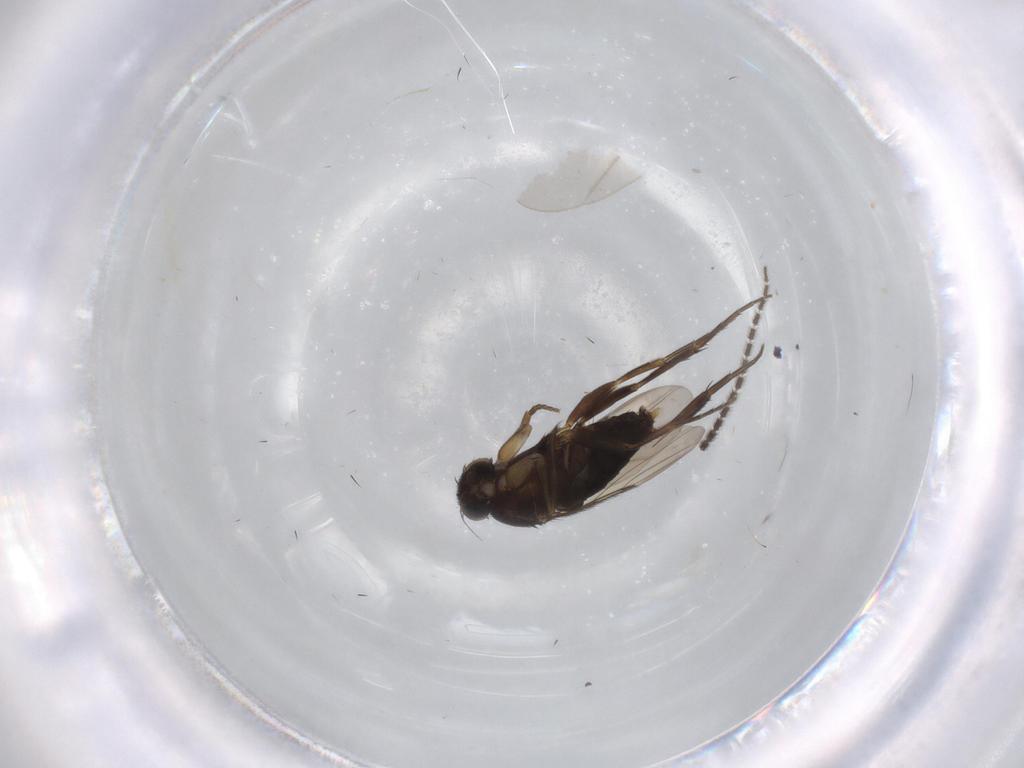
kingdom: Animalia
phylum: Arthropoda
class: Insecta
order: Diptera
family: Phoridae
